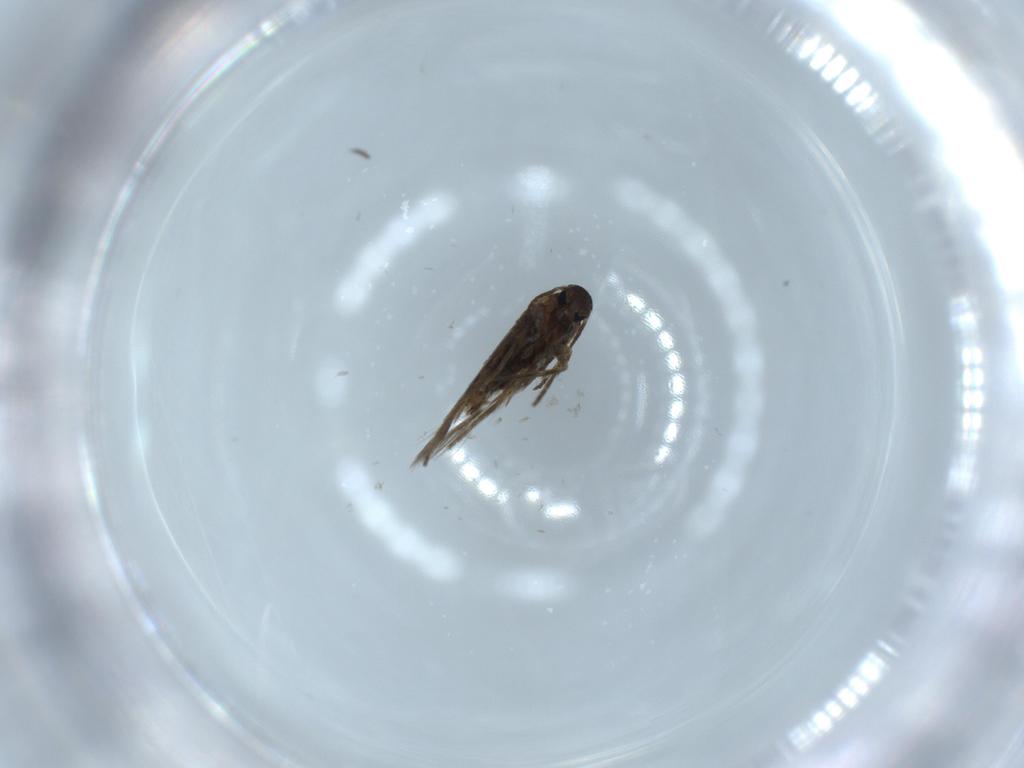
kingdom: Animalia
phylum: Arthropoda
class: Insecta
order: Lepidoptera
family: Heliozelidae
